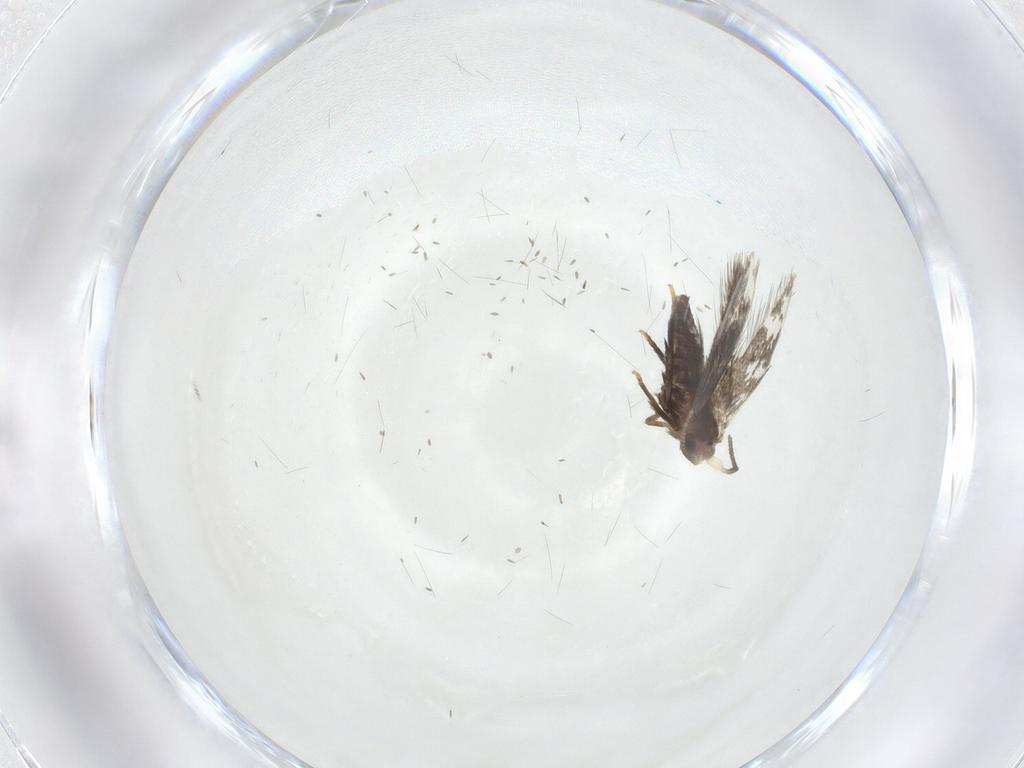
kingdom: Animalia
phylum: Arthropoda
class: Insecta
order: Lepidoptera
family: Nepticulidae
